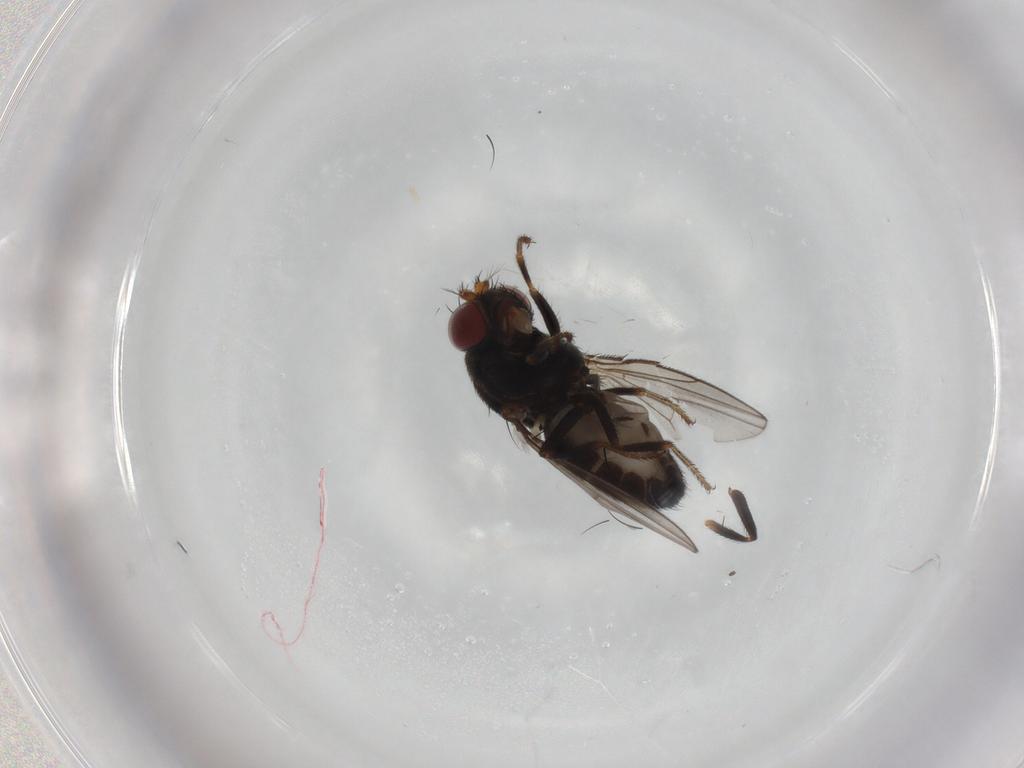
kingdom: Animalia
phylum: Arthropoda
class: Insecta
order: Diptera
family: Ephydridae
